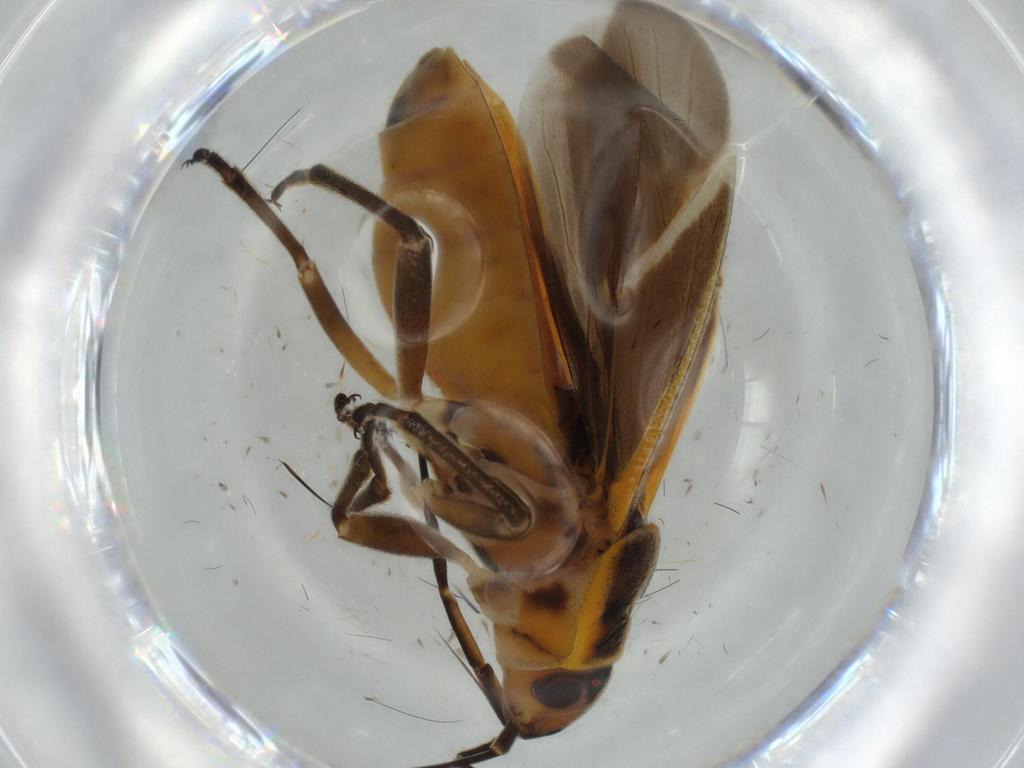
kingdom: Animalia
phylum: Arthropoda
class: Insecta
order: Hemiptera
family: Lygaeidae
